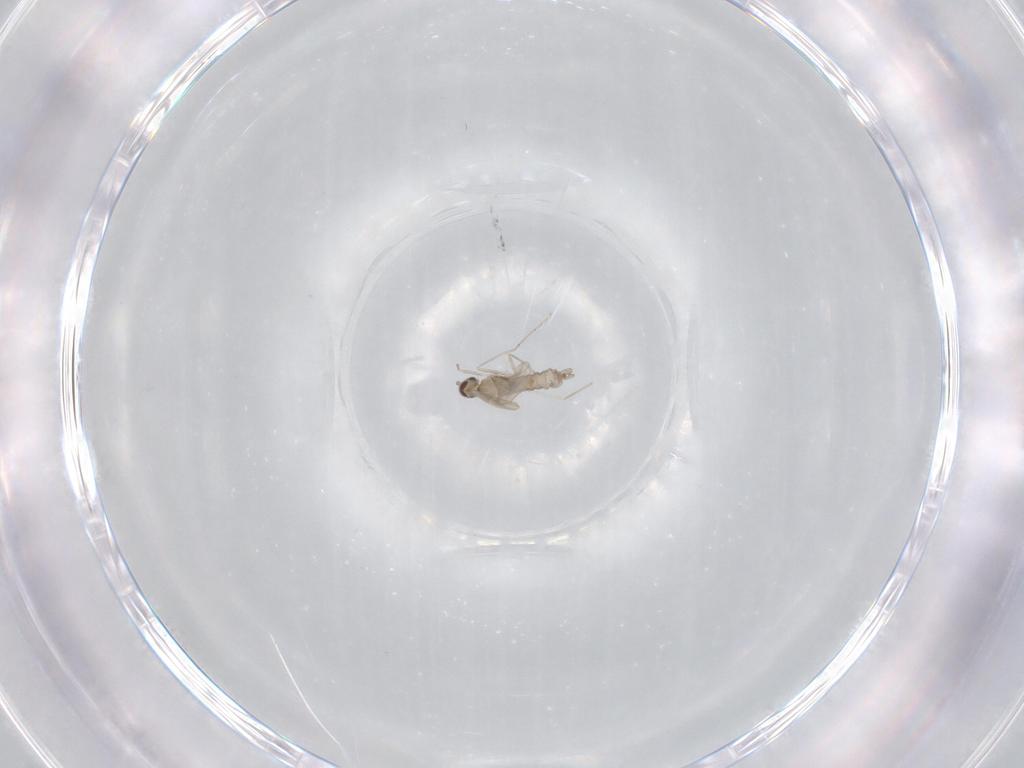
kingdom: Animalia
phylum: Arthropoda
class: Insecta
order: Diptera
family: Cecidomyiidae
